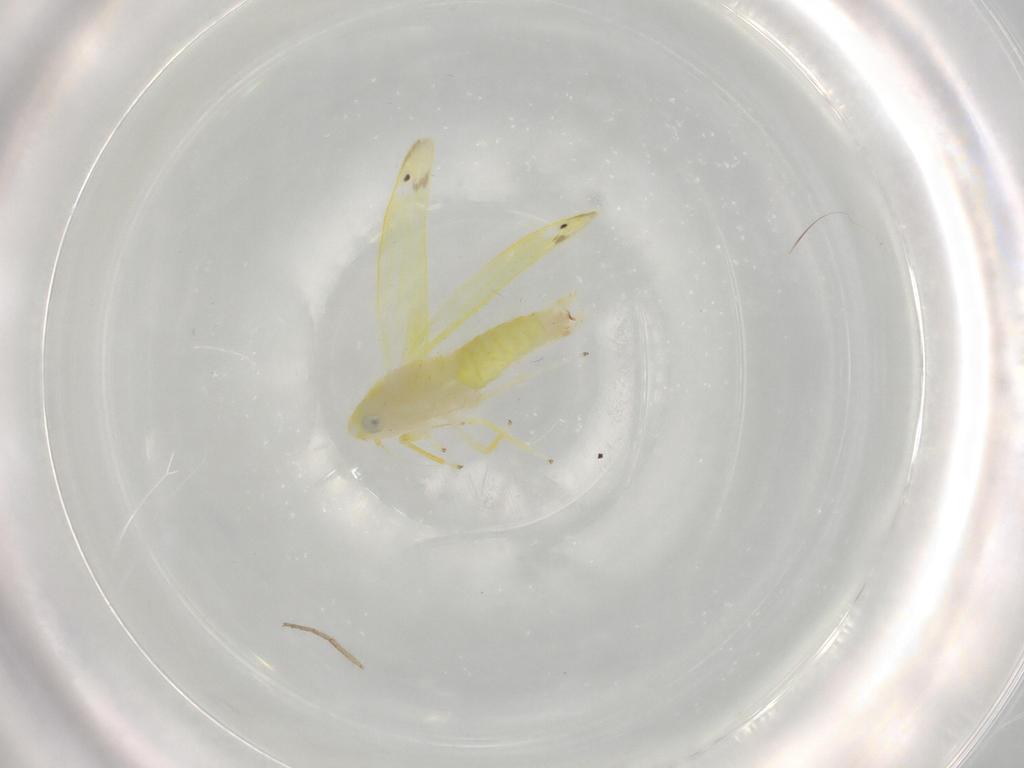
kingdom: Animalia
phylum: Arthropoda
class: Insecta
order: Hemiptera
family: Cicadellidae
